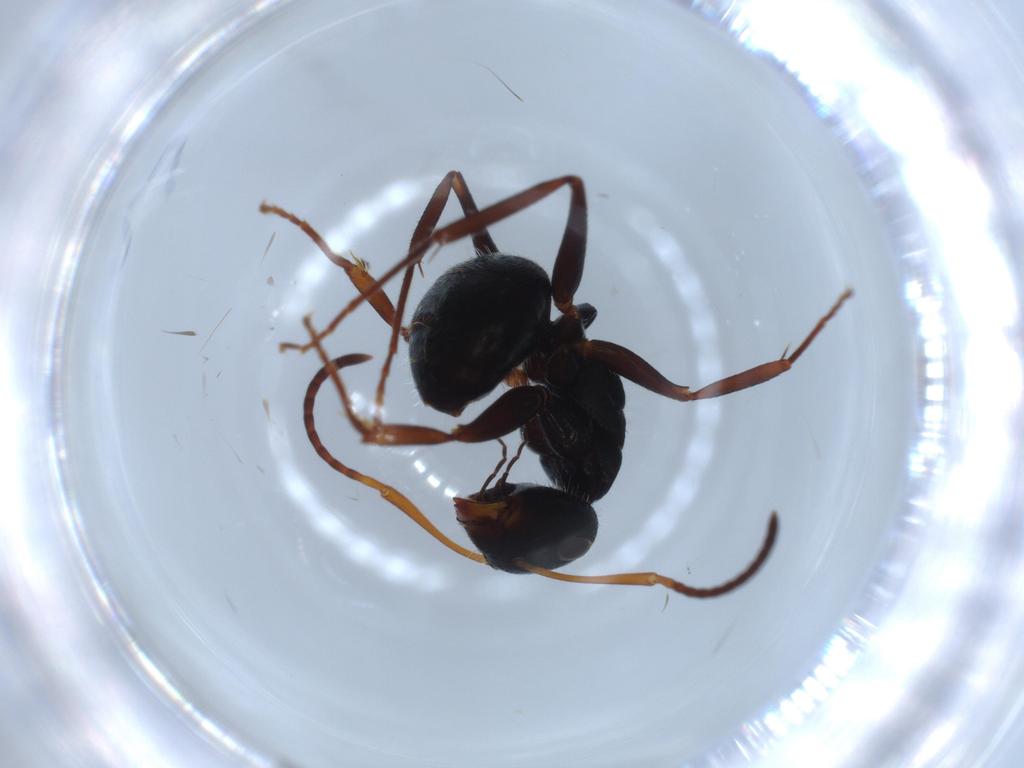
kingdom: Animalia
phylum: Arthropoda
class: Insecta
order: Hymenoptera
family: Formicidae
